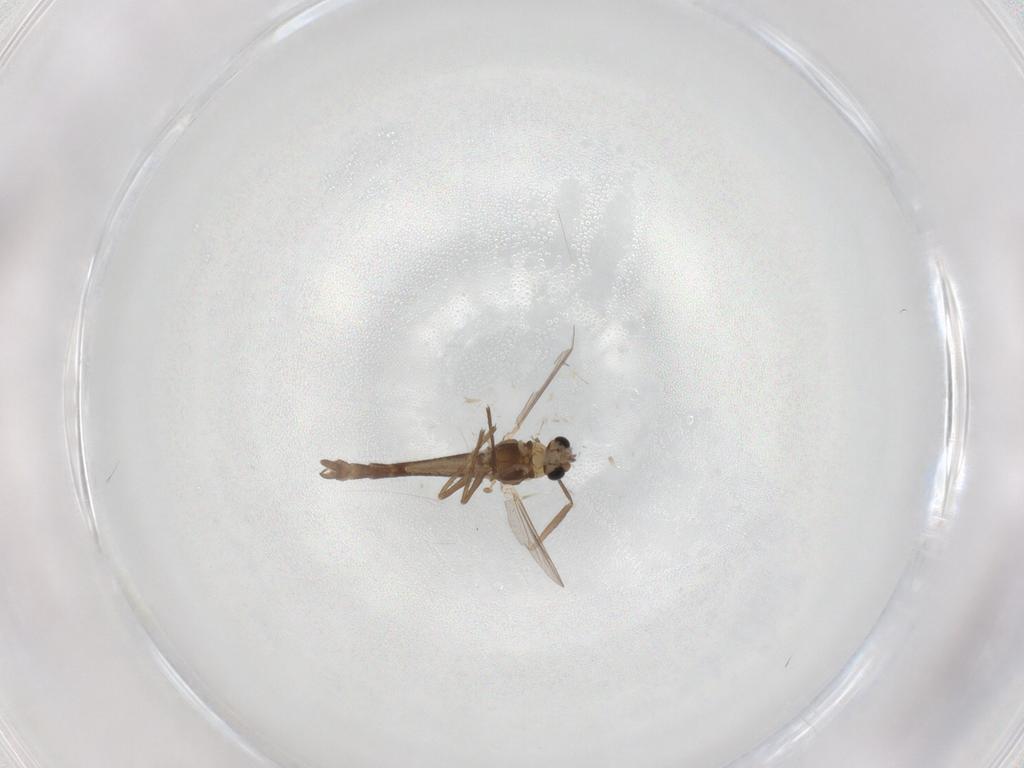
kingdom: Animalia
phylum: Arthropoda
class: Insecta
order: Diptera
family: Chironomidae
